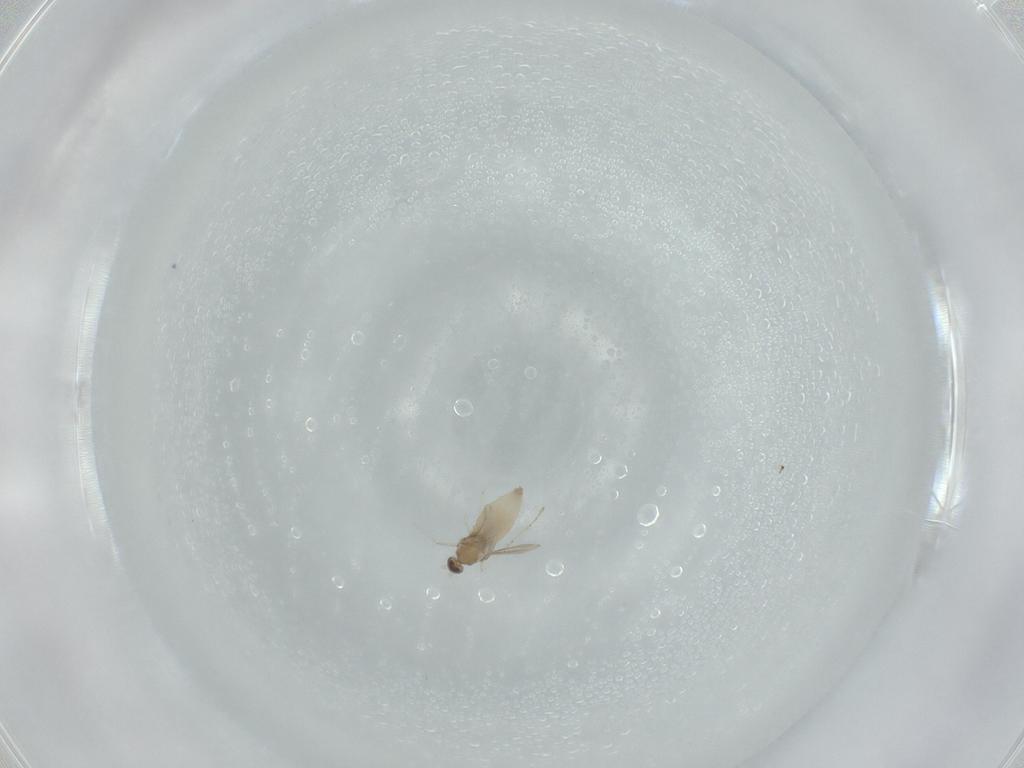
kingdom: Animalia
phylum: Arthropoda
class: Insecta
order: Diptera
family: Cecidomyiidae
